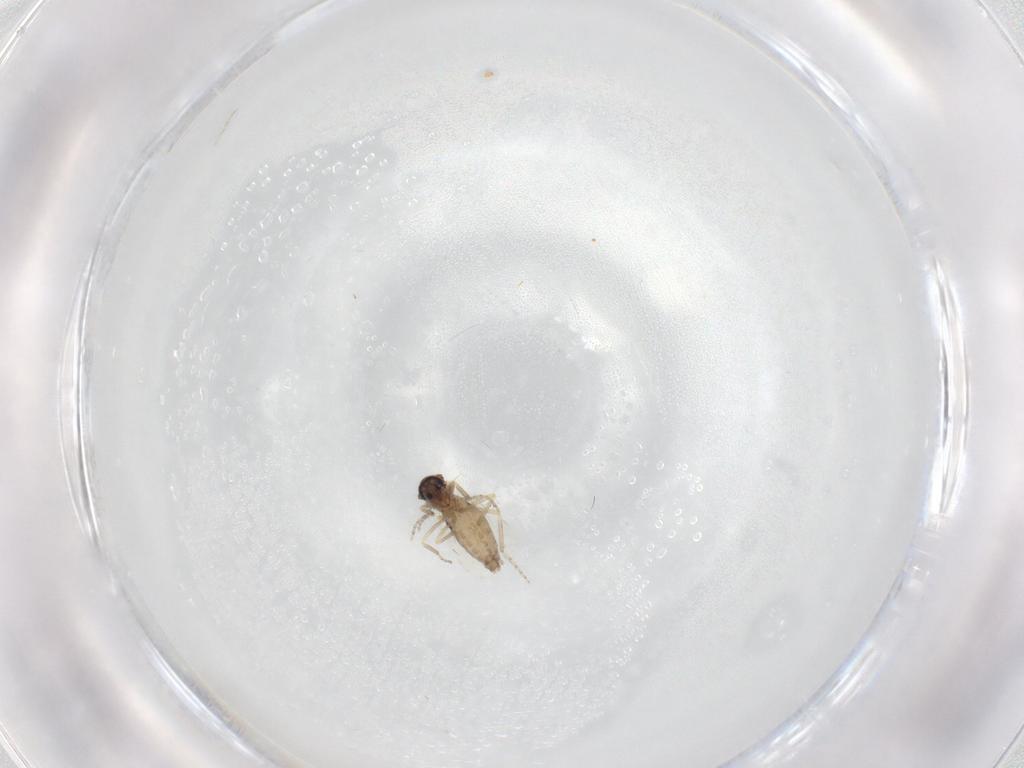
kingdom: Animalia
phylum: Arthropoda
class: Insecta
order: Diptera
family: Ceratopogonidae
